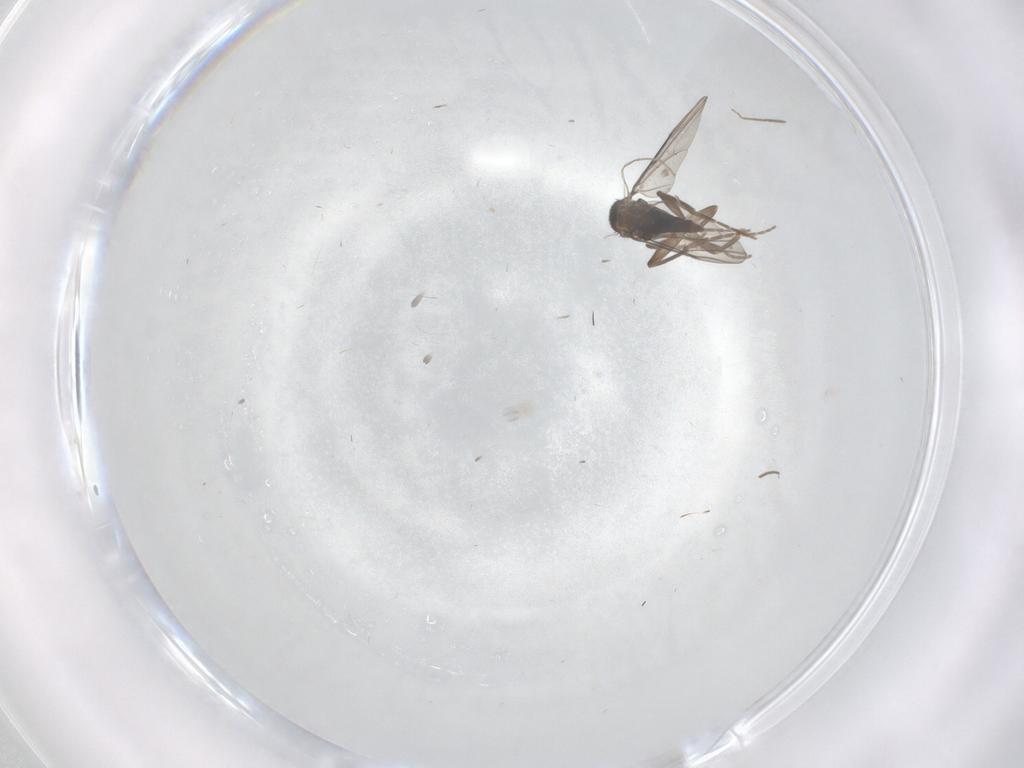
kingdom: Animalia
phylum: Arthropoda
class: Insecta
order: Diptera
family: Ceratopogonidae
